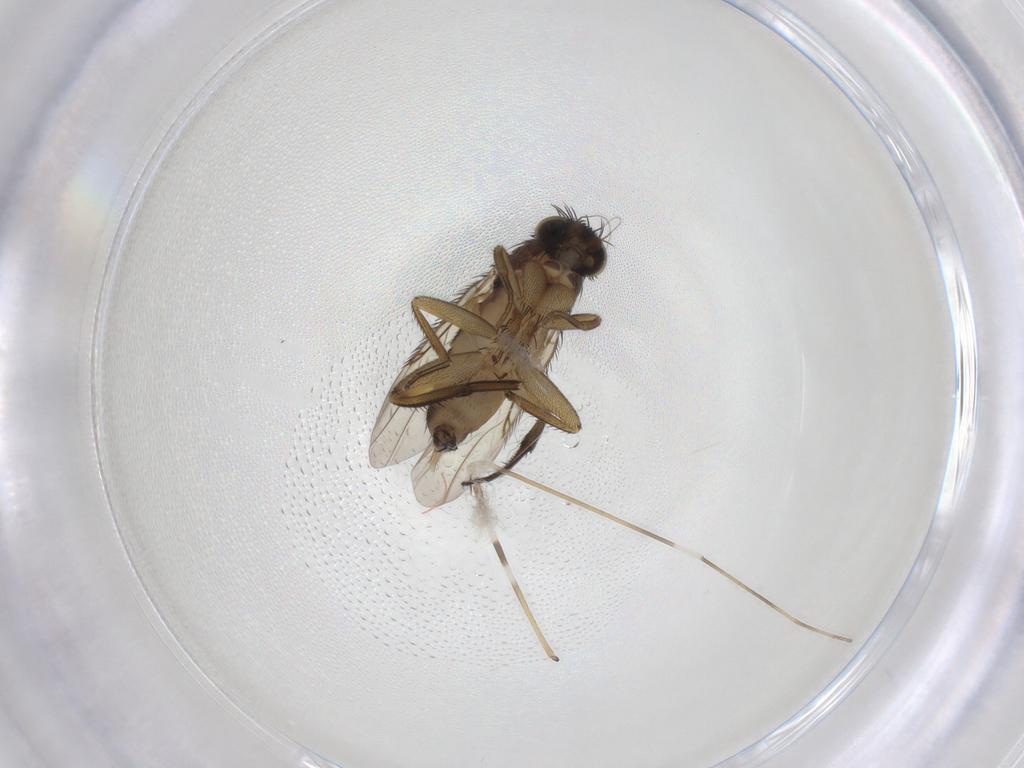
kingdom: Animalia
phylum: Arthropoda
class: Insecta
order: Diptera
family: Phoridae
